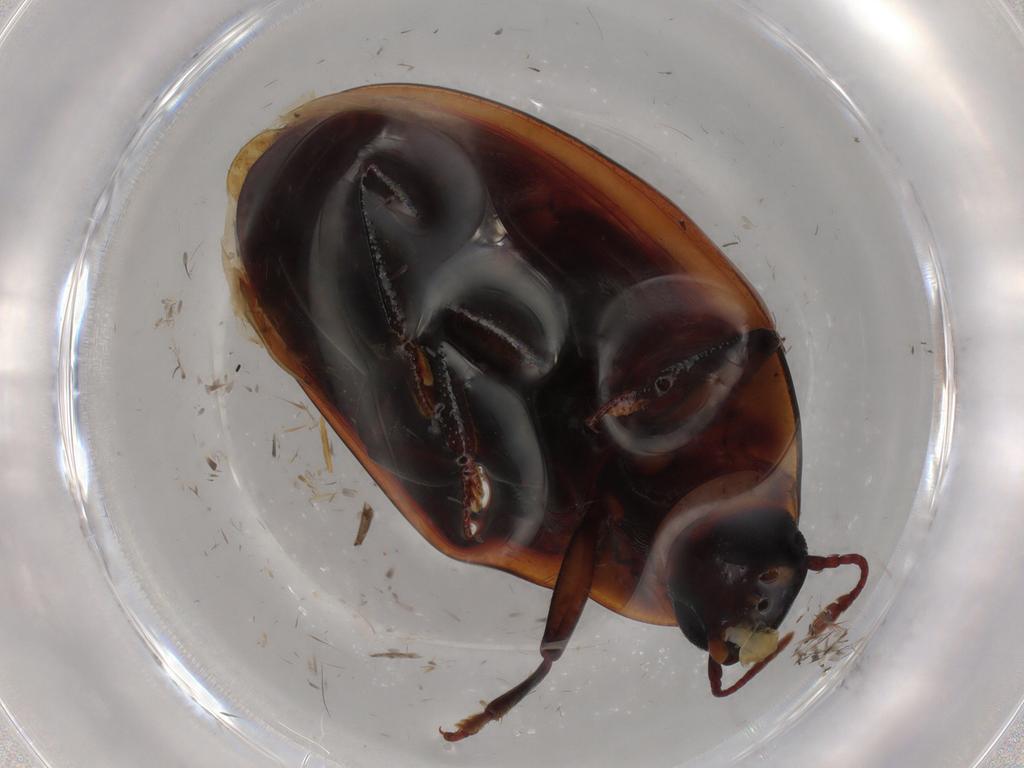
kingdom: Animalia
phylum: Arthropoda
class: Insecta
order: Coleoptera
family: Zopheridae
